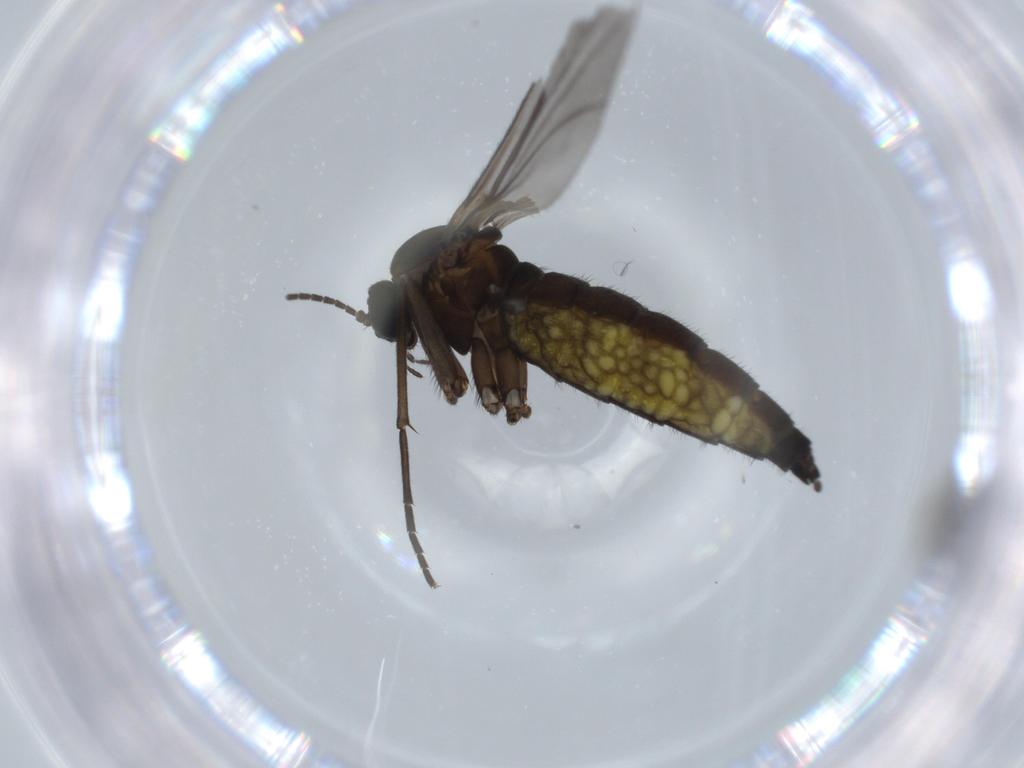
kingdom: Animalia
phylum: Arthropoda
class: Insecta
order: Diptera
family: Sciaridae
